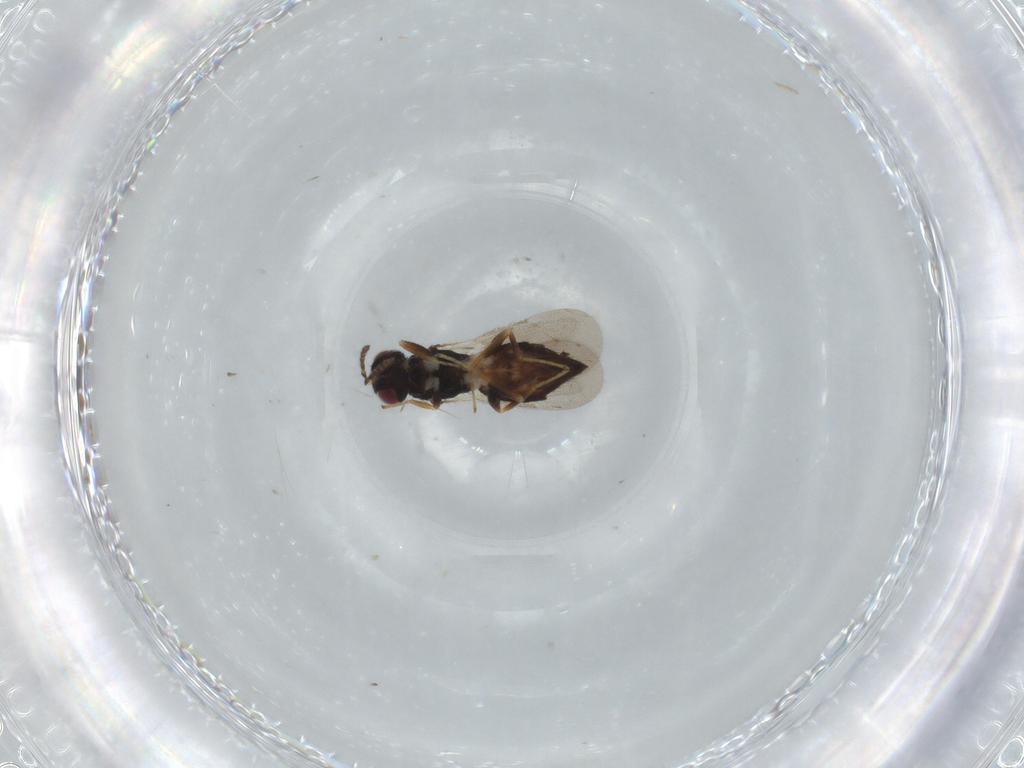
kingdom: Animalia
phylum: Arthropoda
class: Insecta
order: Hymenoptera
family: Eulophidae
